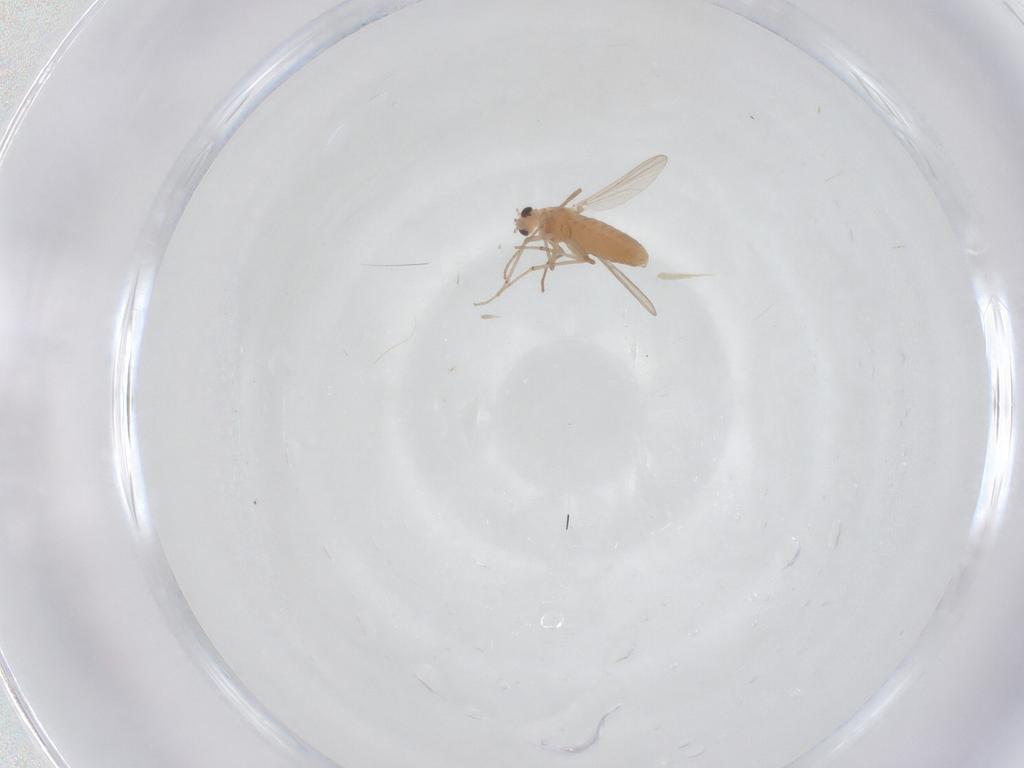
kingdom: Animalia
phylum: Arthropoda
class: Insecta
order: Diptera
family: Chironomidae
